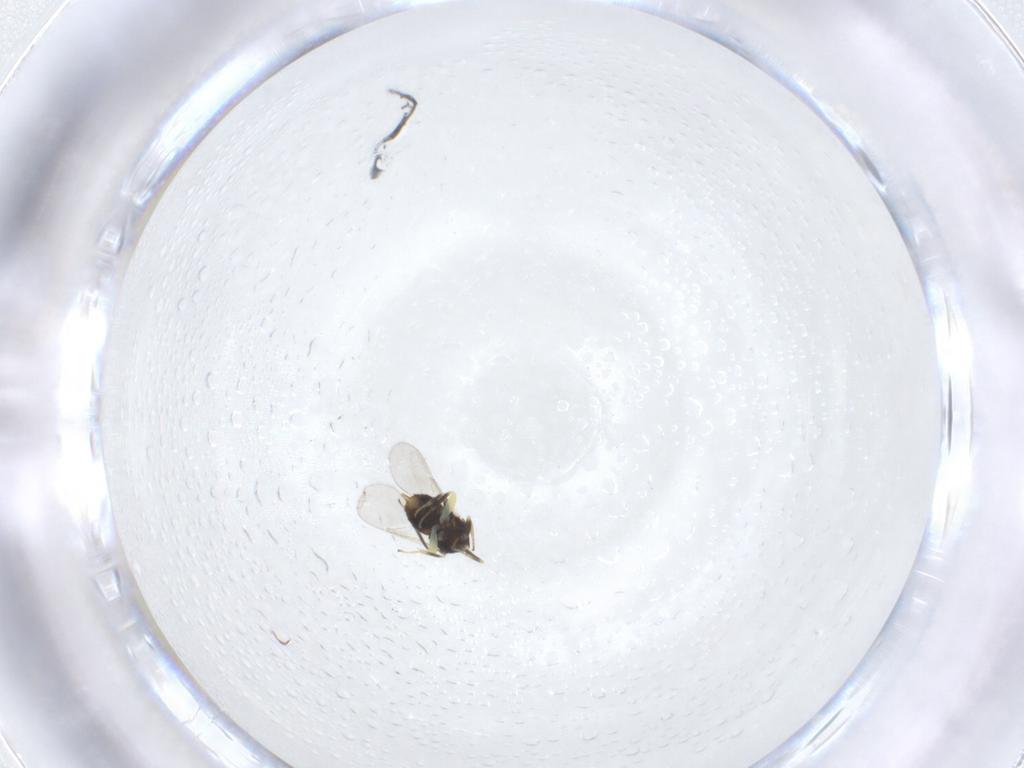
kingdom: Animalia
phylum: Arthropoda
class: Insecta
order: Hymenoptera
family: Aphelinidae
